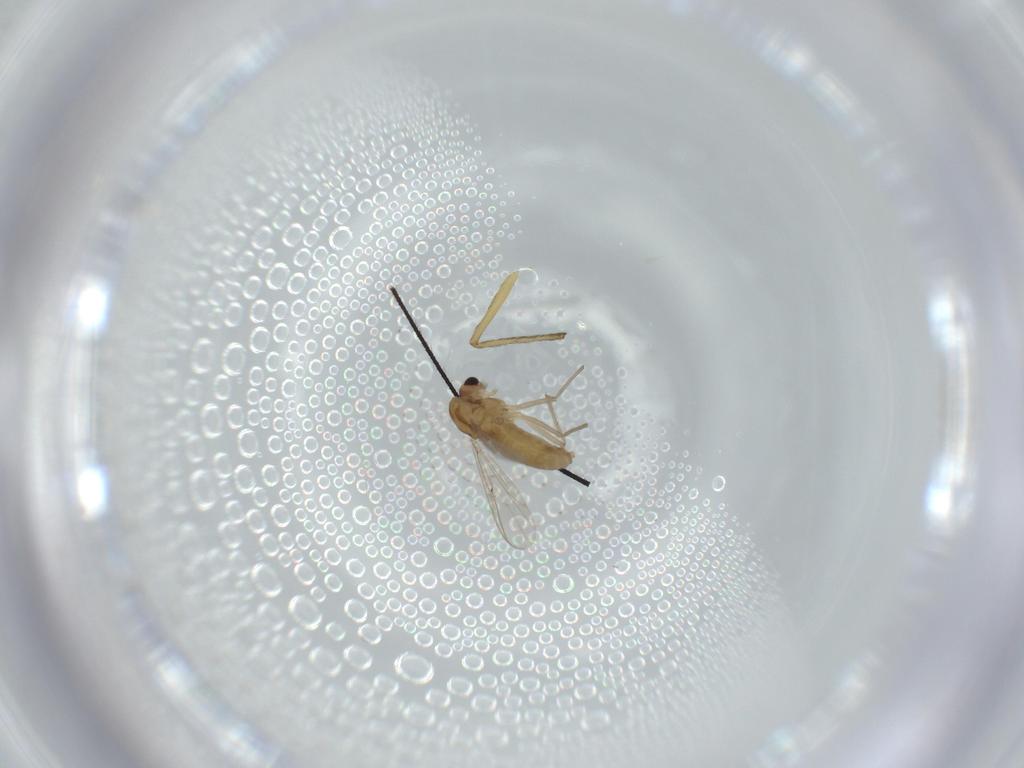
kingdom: Animalia
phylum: Arthropoda
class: Insecta
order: Diptera
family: Chironomidae
